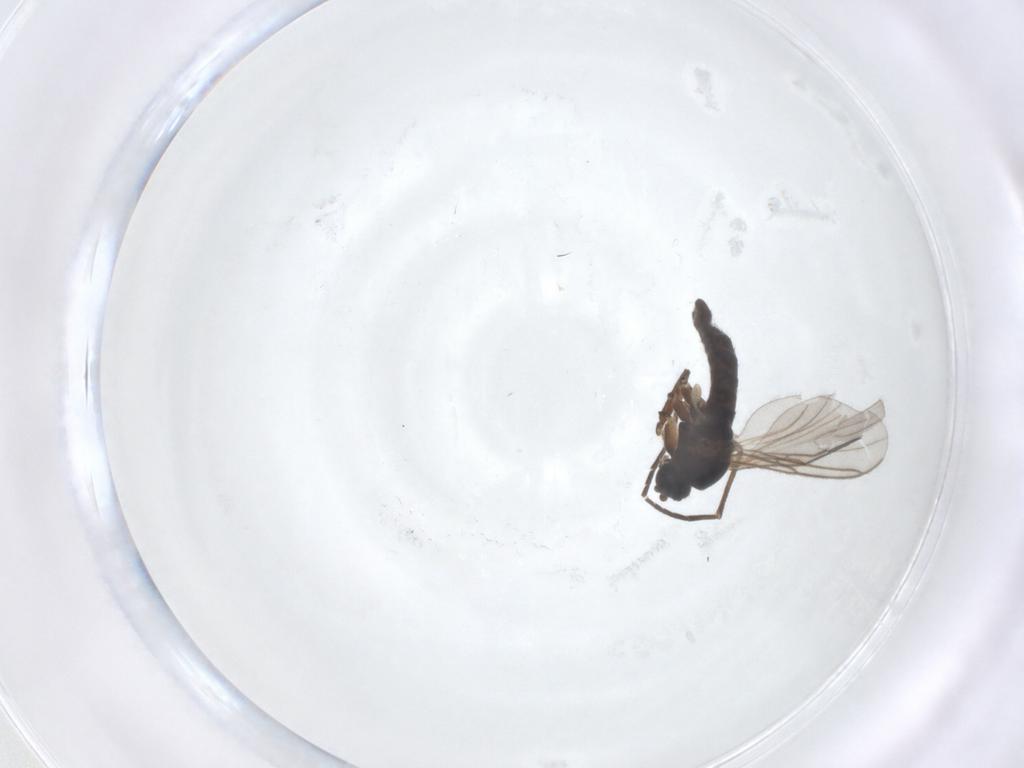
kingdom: Animalia
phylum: Arthropoda
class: Insecta
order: Diptera
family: Sciaridae
